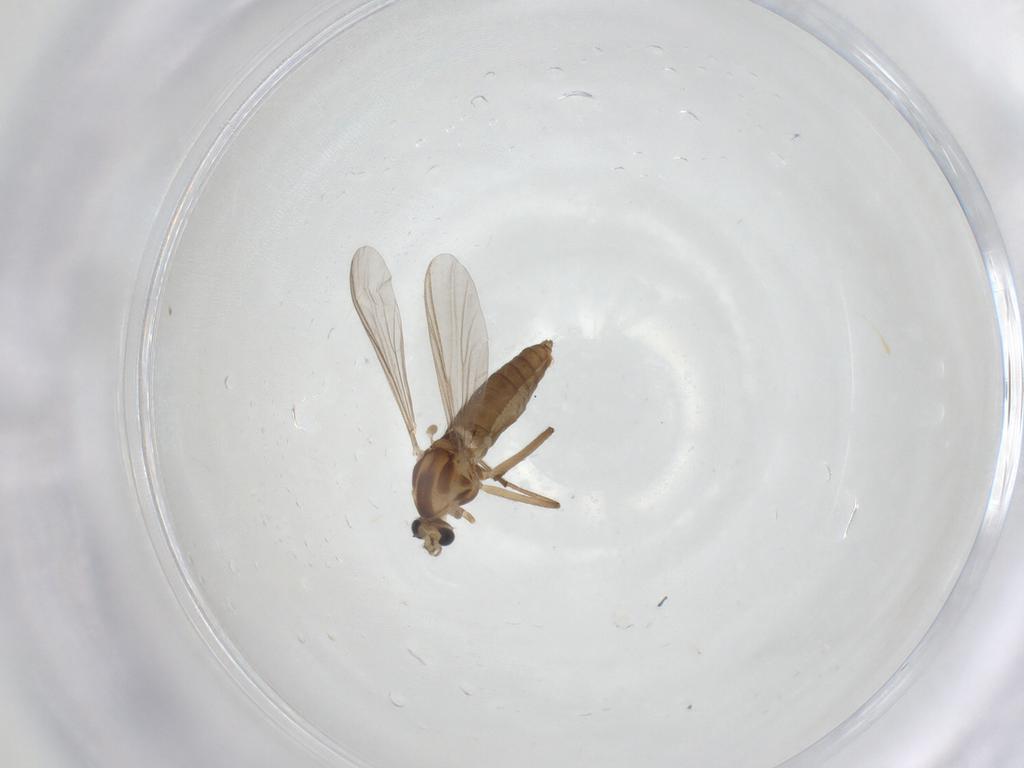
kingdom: Animalia
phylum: Arthropoda
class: Insecta
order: Diptera
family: Chironomidae
